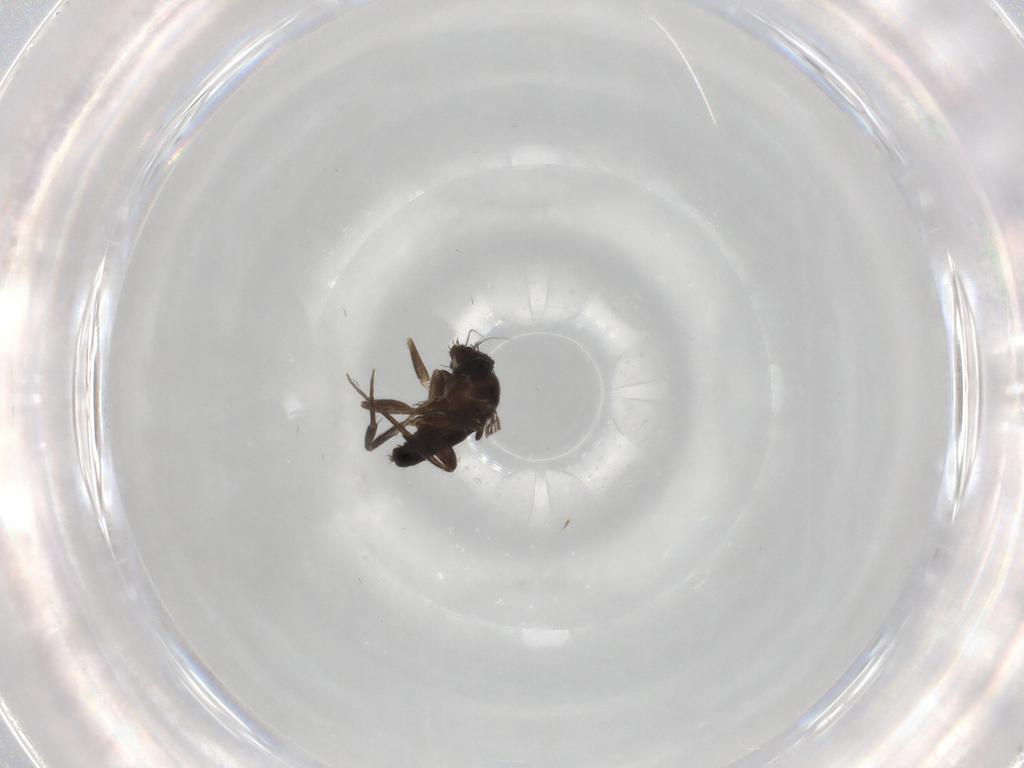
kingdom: Animalia
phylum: Arthropoda
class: Insecta
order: Diptera
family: Phoridae
